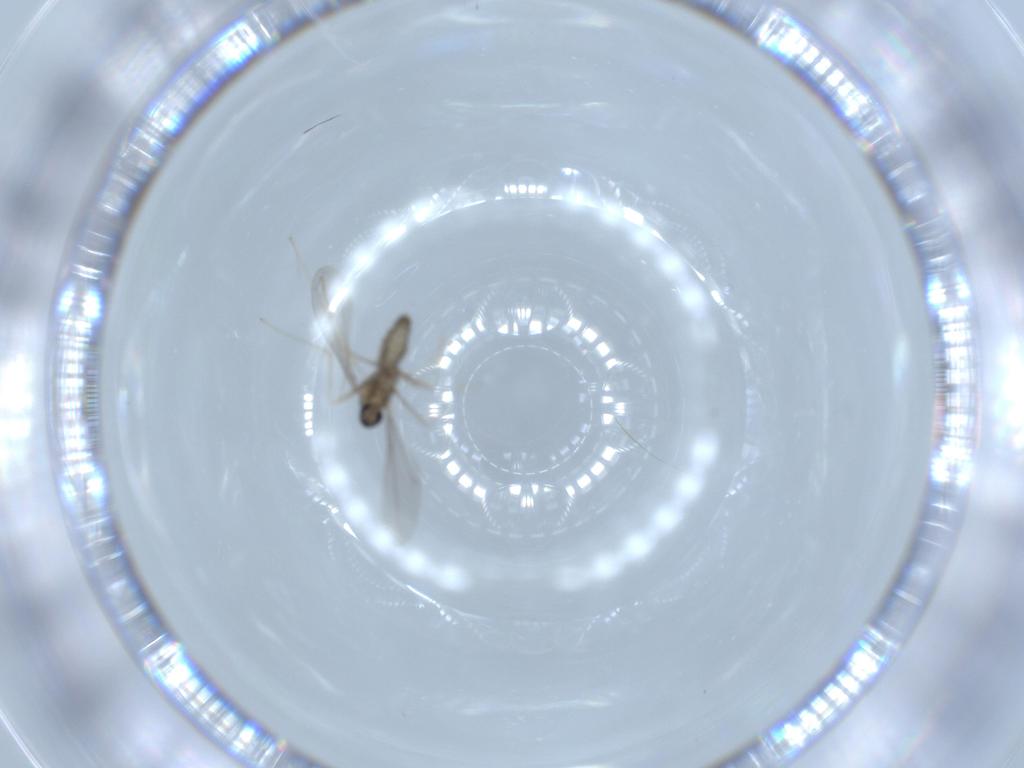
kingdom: Animalia
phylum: Arthropoda
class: Insecta
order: Diptera
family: Cecidomyiidae
